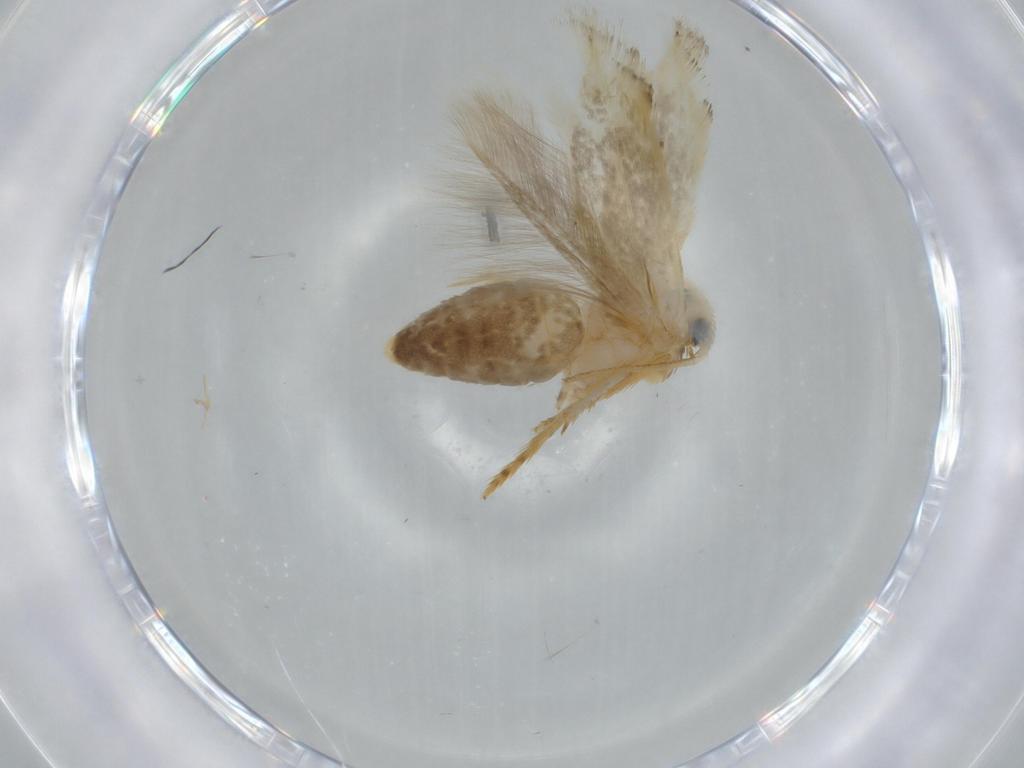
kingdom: Animalia
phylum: Arthropoda
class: Insecta
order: Lepidoptera
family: Opostegidae
